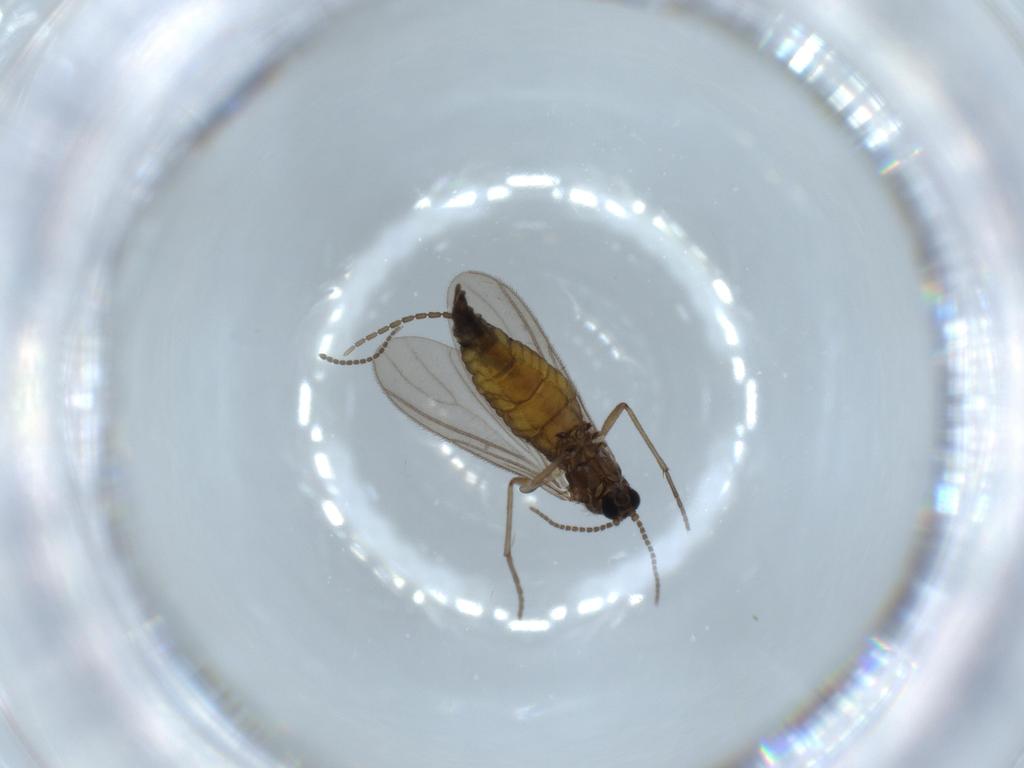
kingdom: Animalia
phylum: Arthropoda
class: Insecta
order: Diptera
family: Sciaridae
